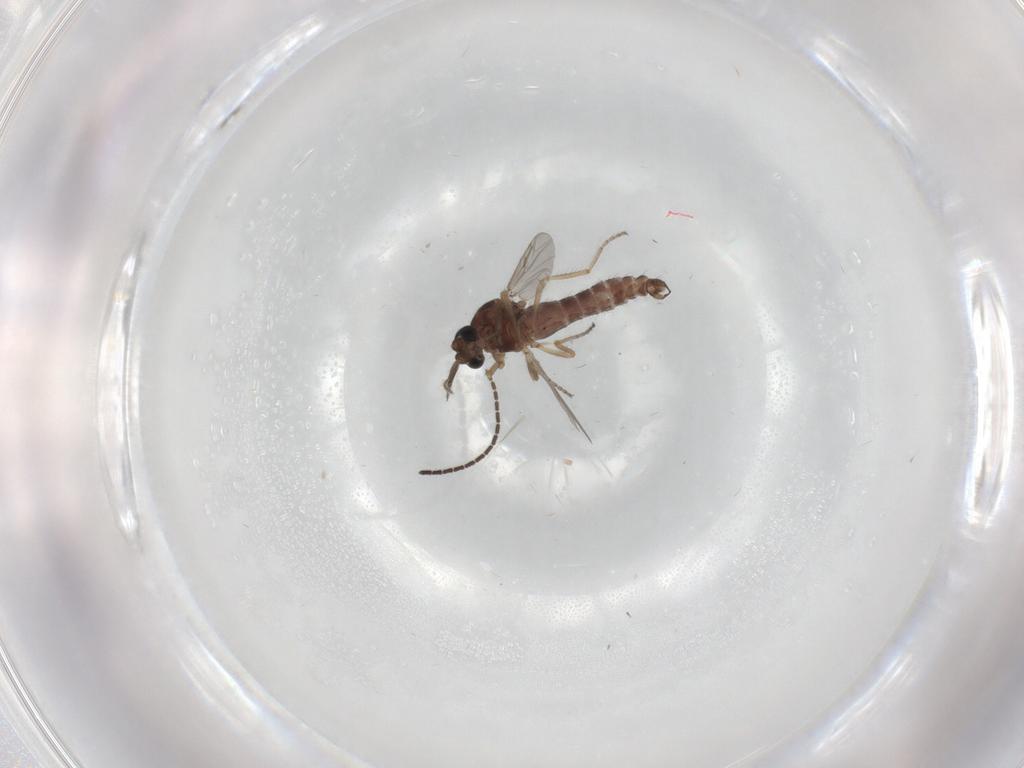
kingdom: Animalia
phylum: Arthropoda
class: Insecta
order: Diptera
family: Ceratopogonidae
